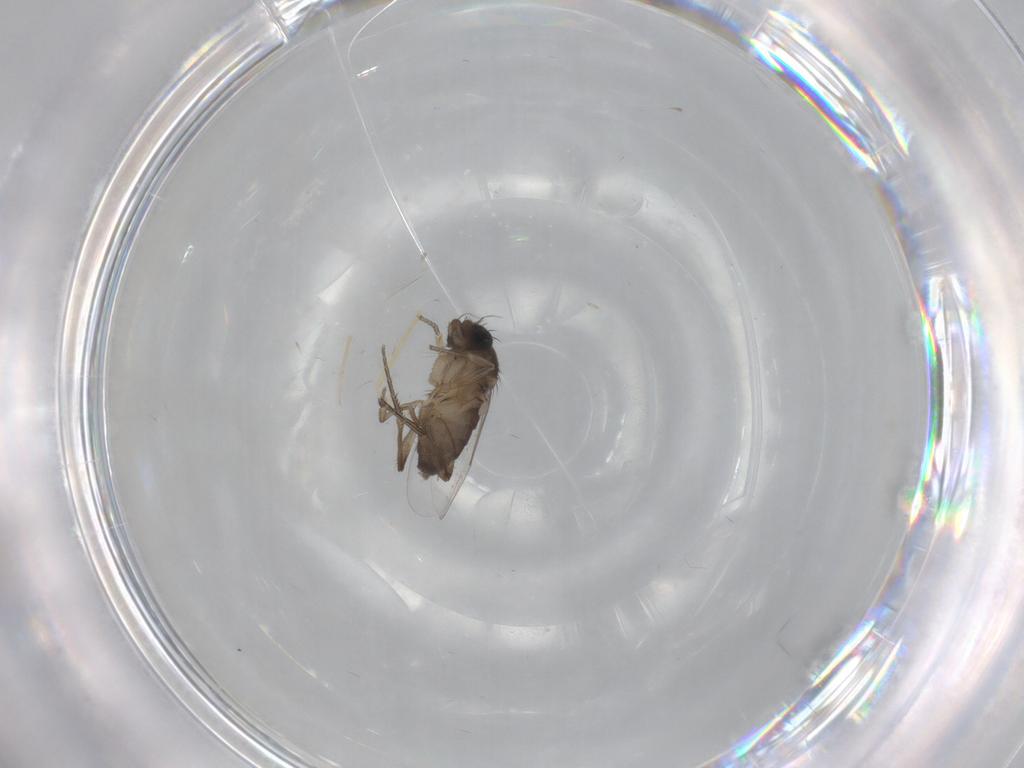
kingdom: Animalia
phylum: Arthropoda
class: Insecta
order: Diptera
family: Phoridae
